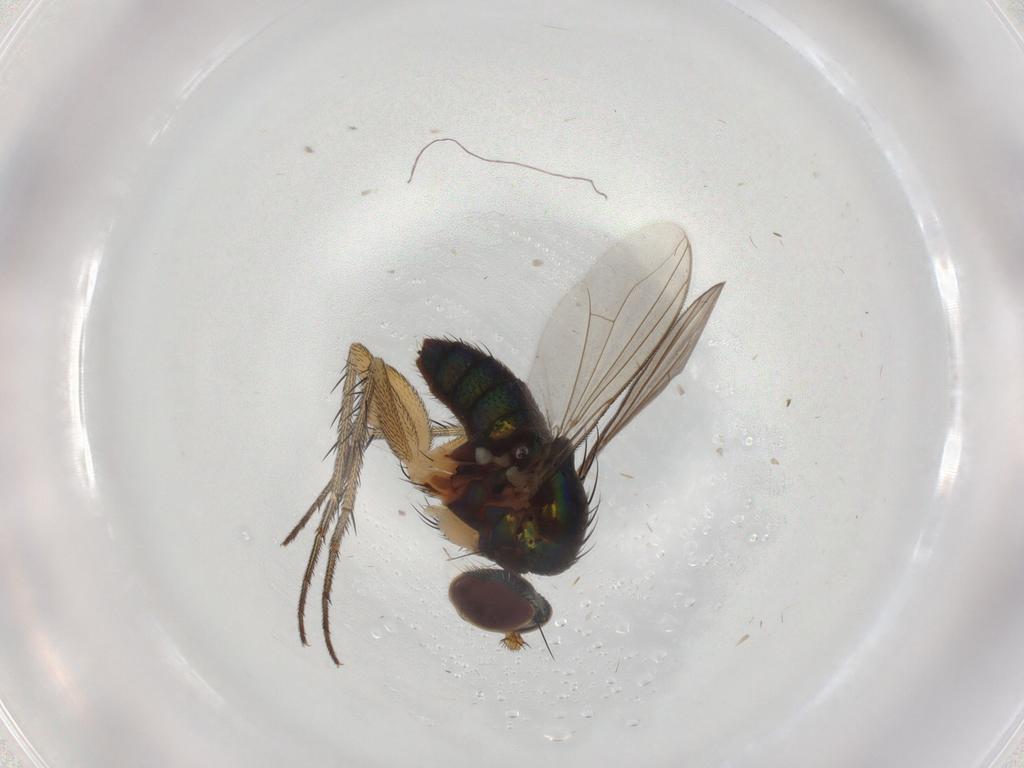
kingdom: Animalia
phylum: Arthropoda
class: Insecta
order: Diptera
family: Dolichopodidae
